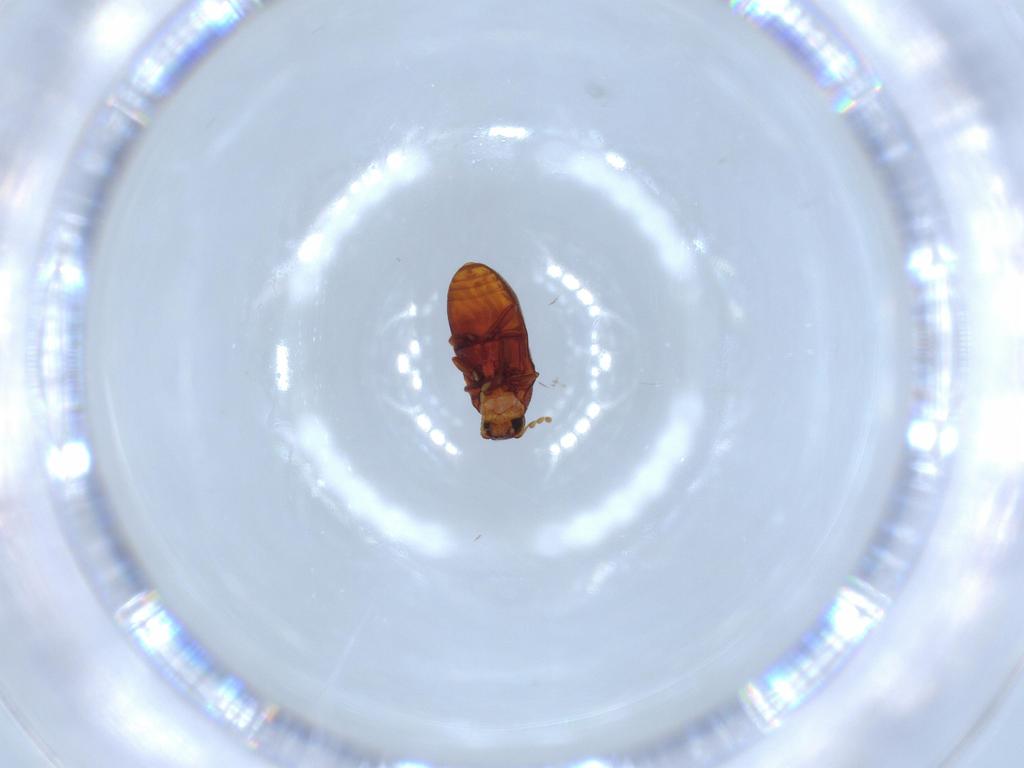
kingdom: Animalia
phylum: Arthropoda
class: Insecta
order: Coleoptera
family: Ptinidae
